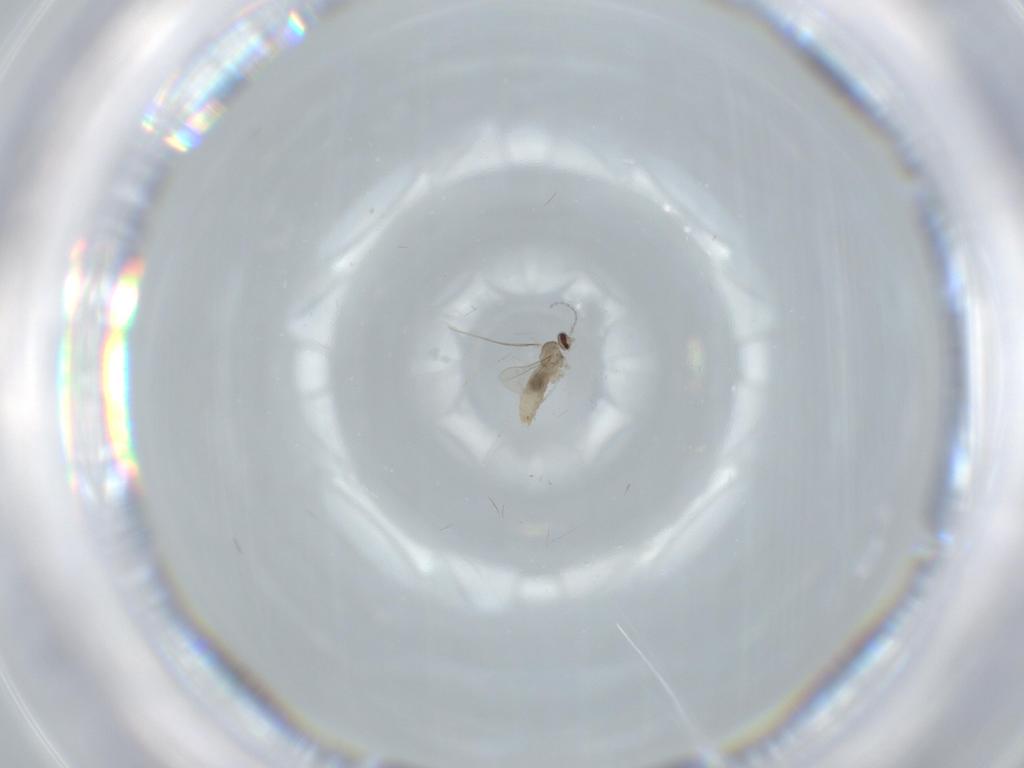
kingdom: Animalia
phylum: Arthropoda
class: Insecta
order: Diptera
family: Cecidomyiidae
